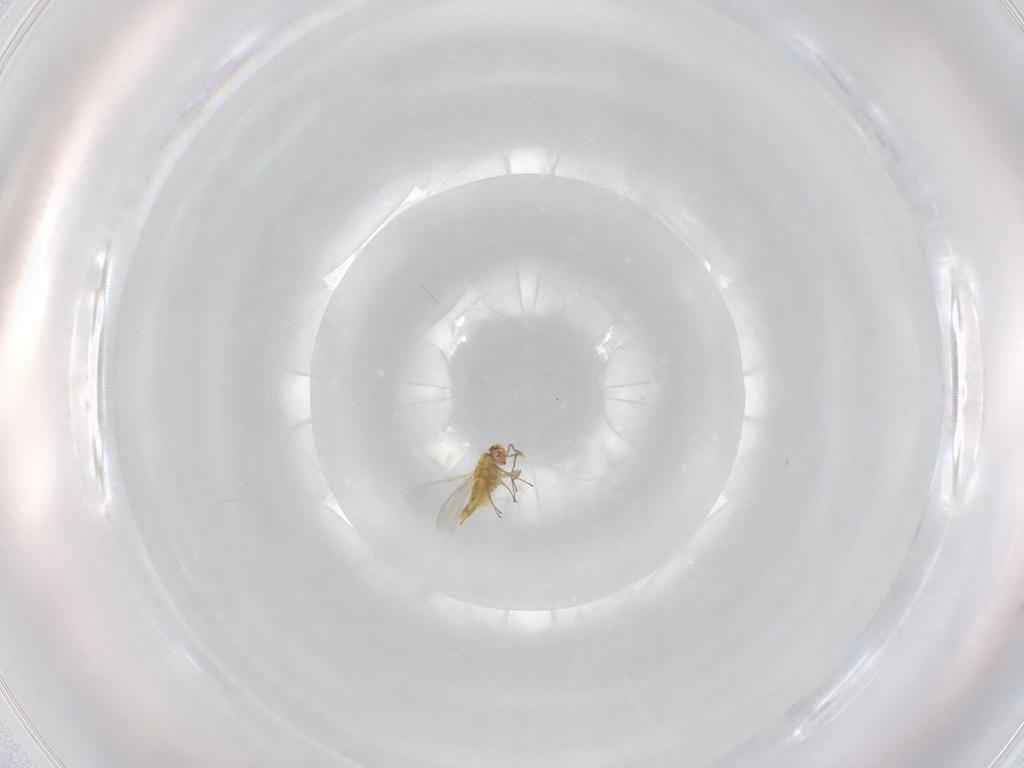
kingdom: Animalia
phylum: Arthropoda
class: Insecta
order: Hymenoptera
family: Aphelinidae
